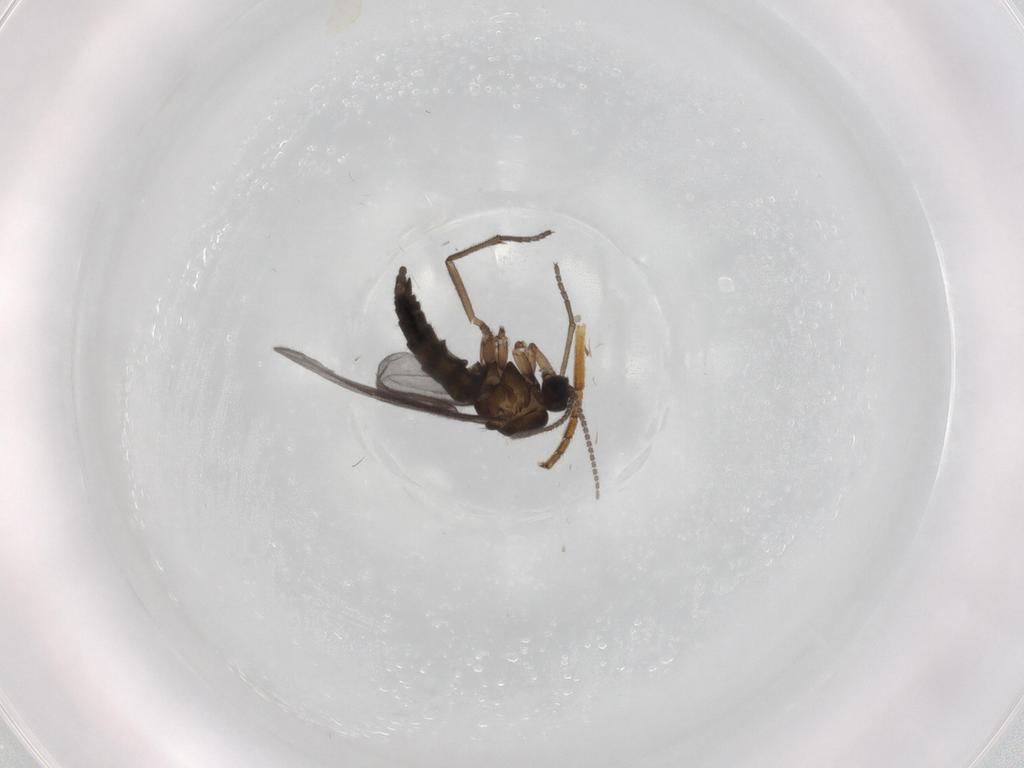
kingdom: Animalia
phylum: Arthropoda
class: Insecta
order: Diptera
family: Sciaridae
